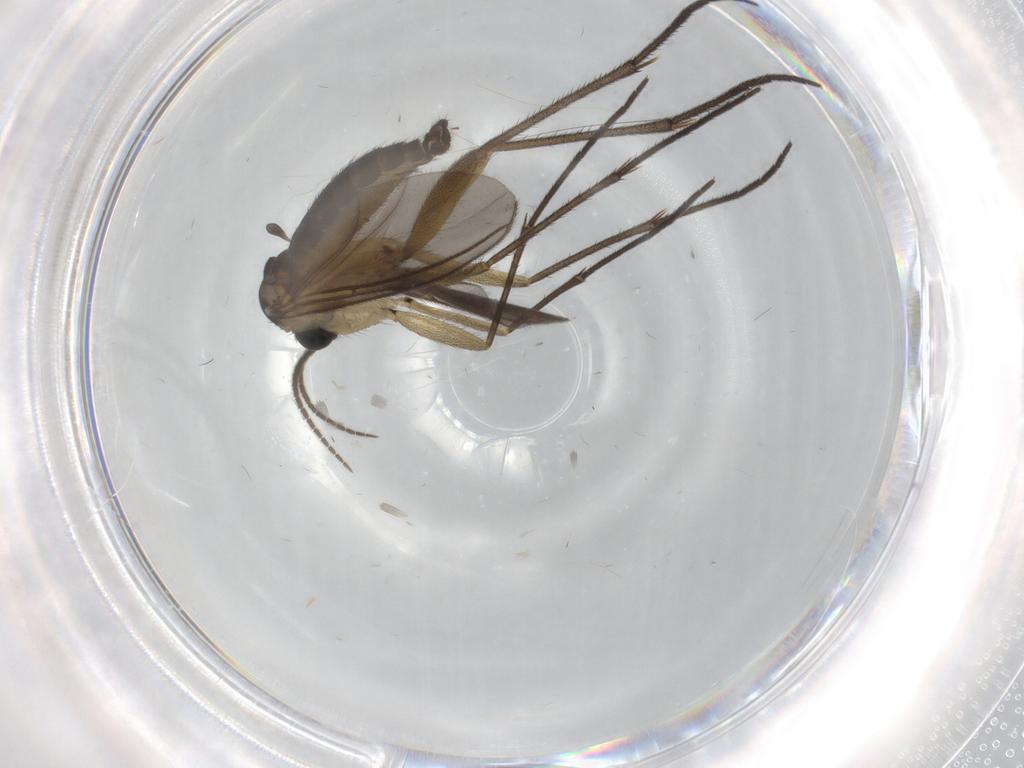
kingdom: Animalia
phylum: Arthropoda
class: Insecta
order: Diptera
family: Sciaridae
